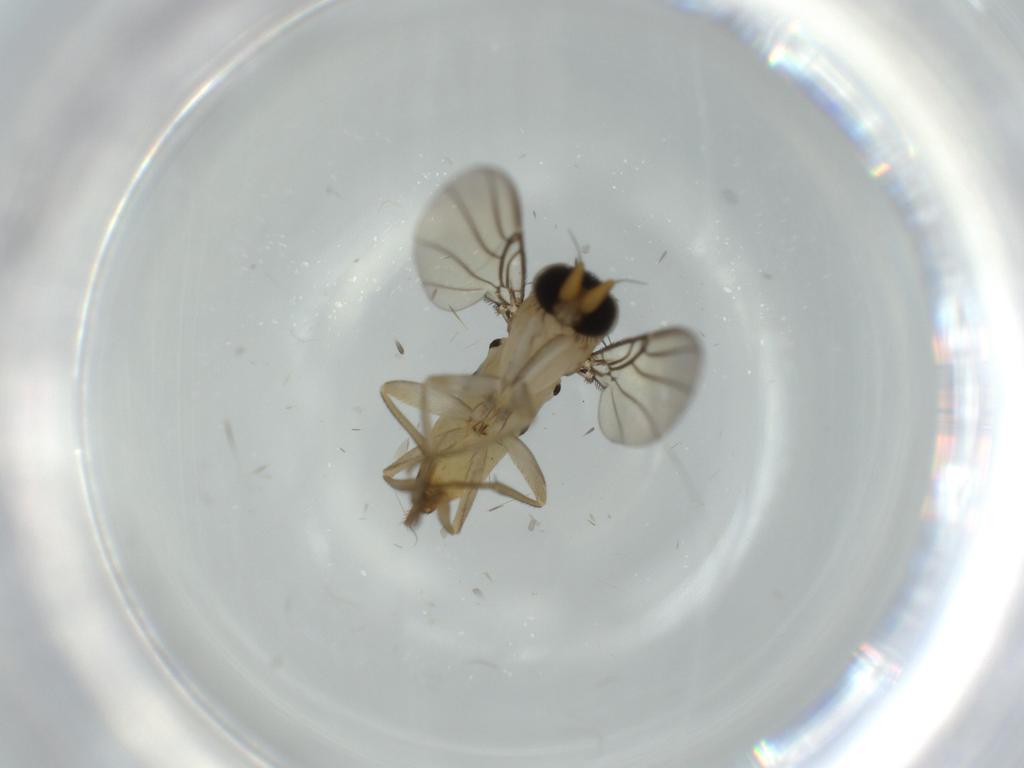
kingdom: Animalia
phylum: Arthropoda
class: Insecta
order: Diptera
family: Phoridae
